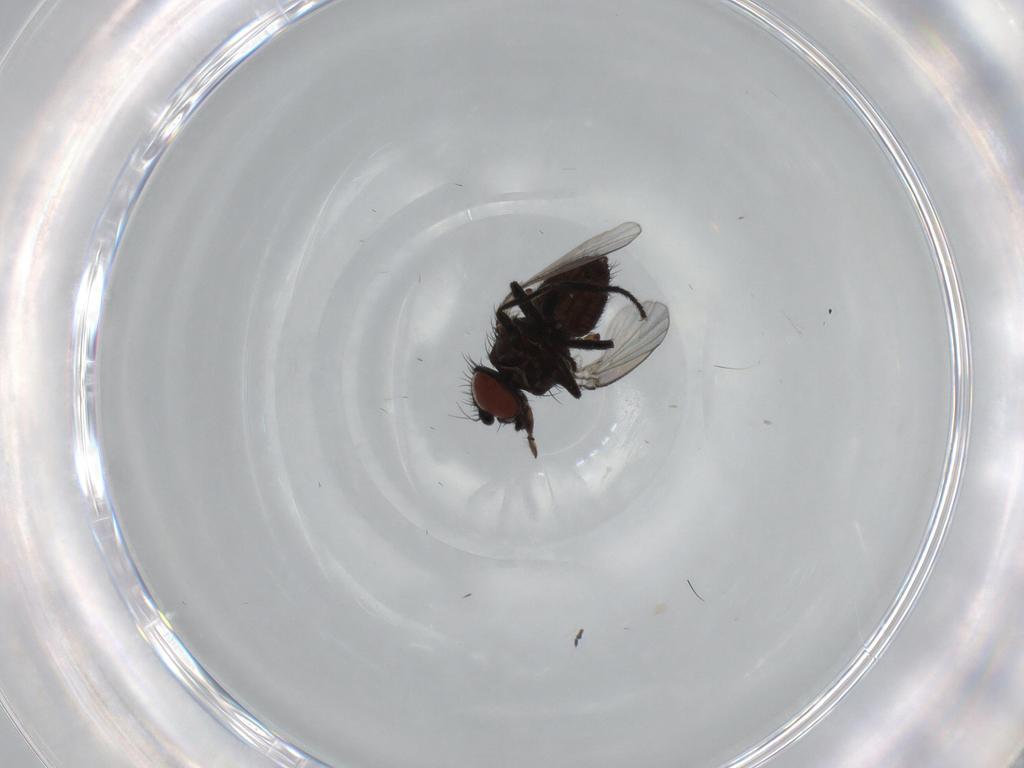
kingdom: Animalia
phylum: Arthropoda
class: Insecta
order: Diptera
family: Milichiidae
